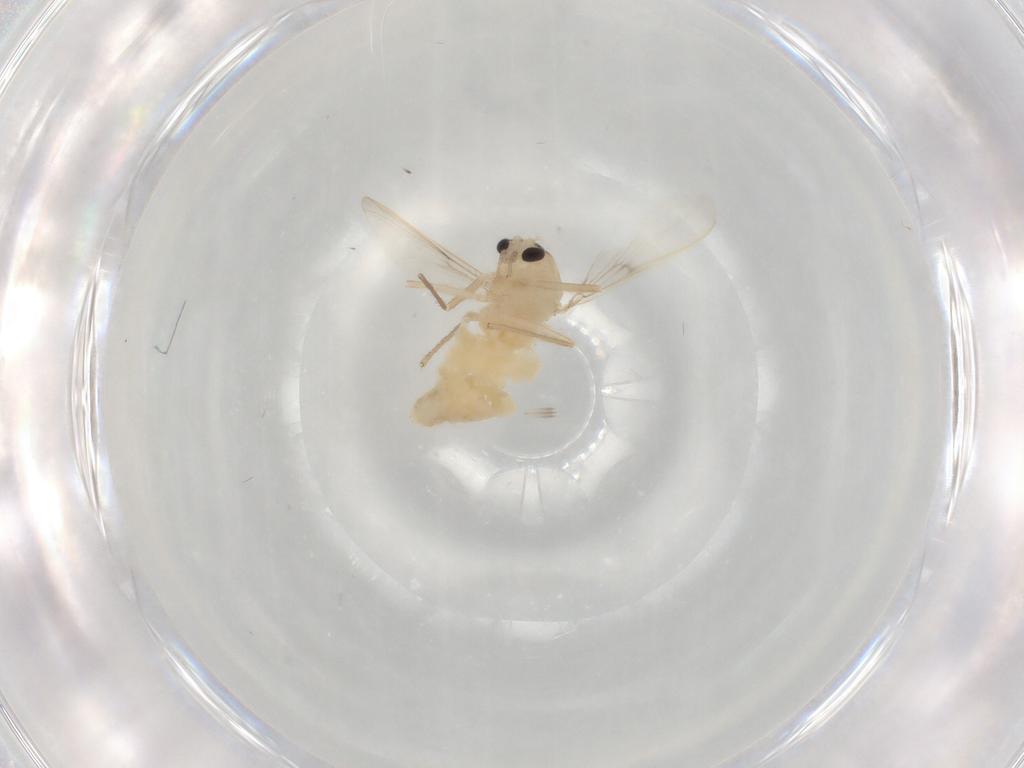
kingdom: Animalia
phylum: Arthropoda
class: Insecta
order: Diptera
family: Chironomidae
